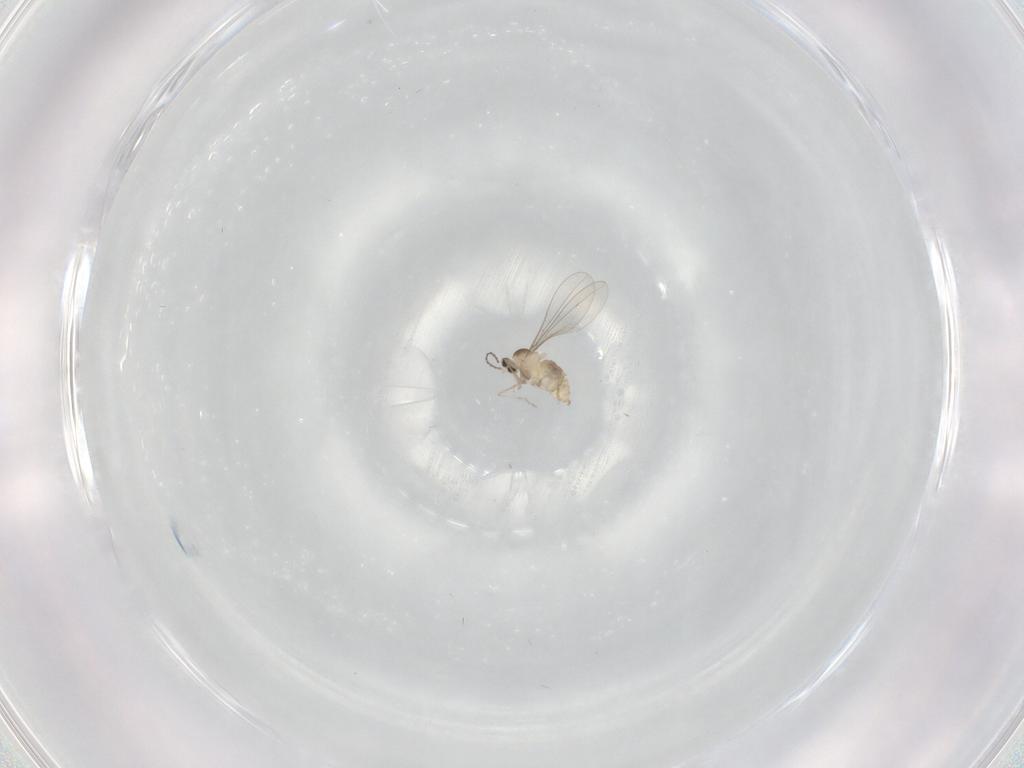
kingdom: Animalia
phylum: Arthropoda
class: Insecta
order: Diptera
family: Cecidomyiidae
